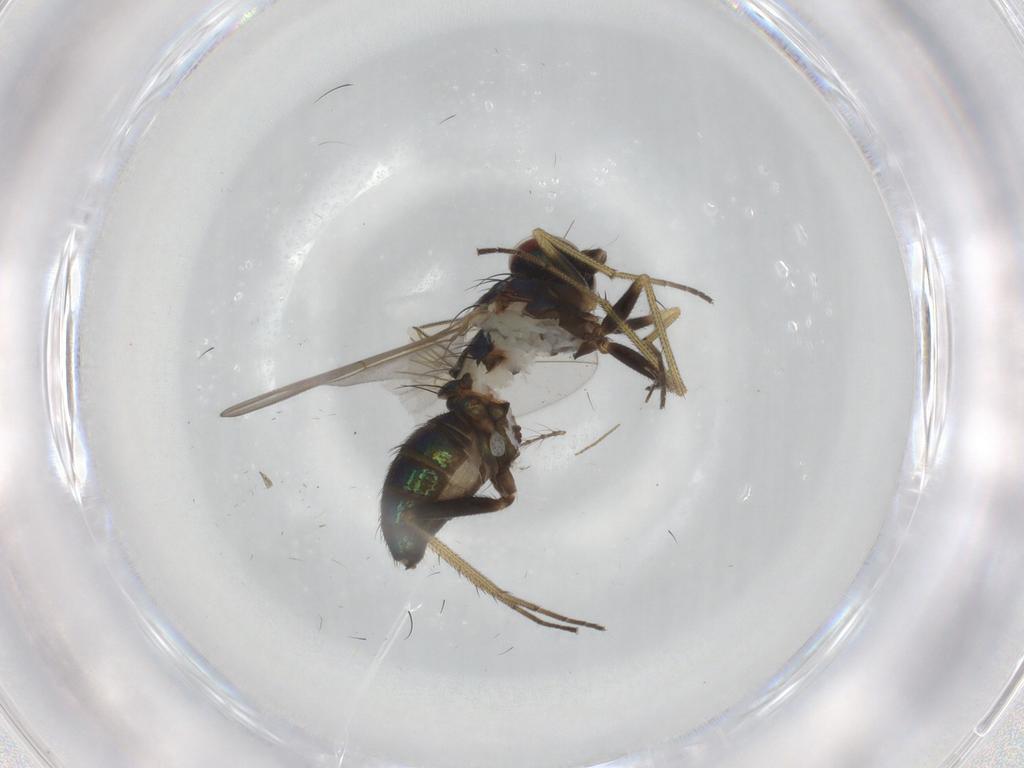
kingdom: Animalia
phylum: Arthropoda
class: Insecta
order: Diptera
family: Dolichopodidae
